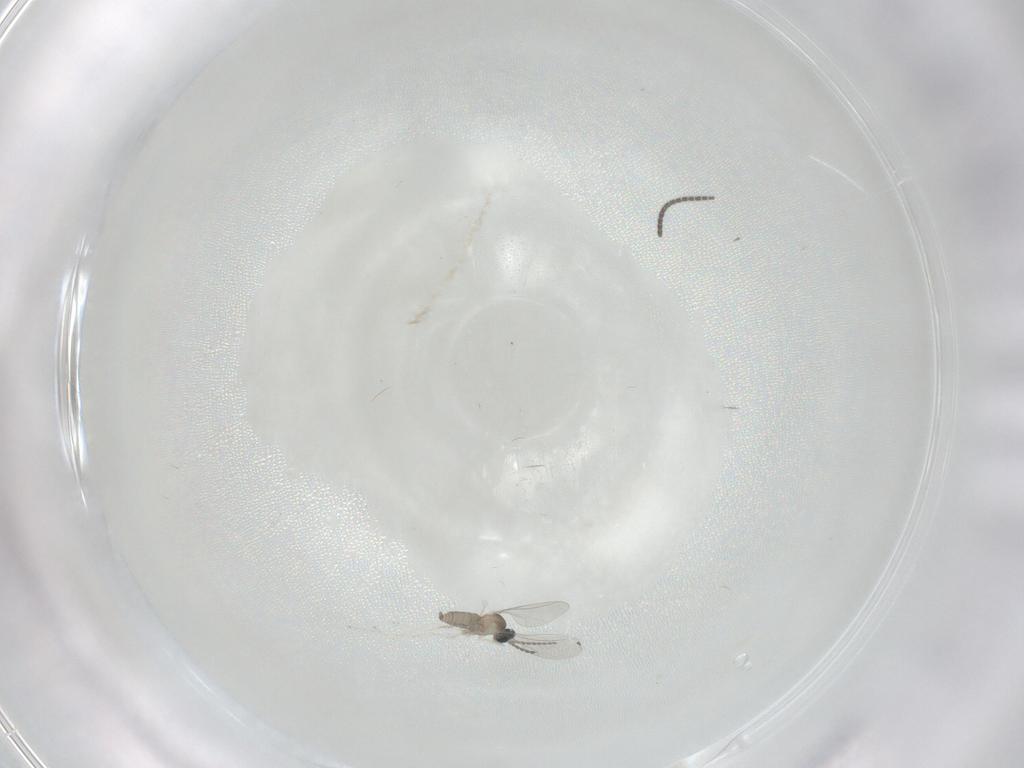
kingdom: Animalia
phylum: Arthropoda
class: Insecta
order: Diptera
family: Cecidomyiidae
